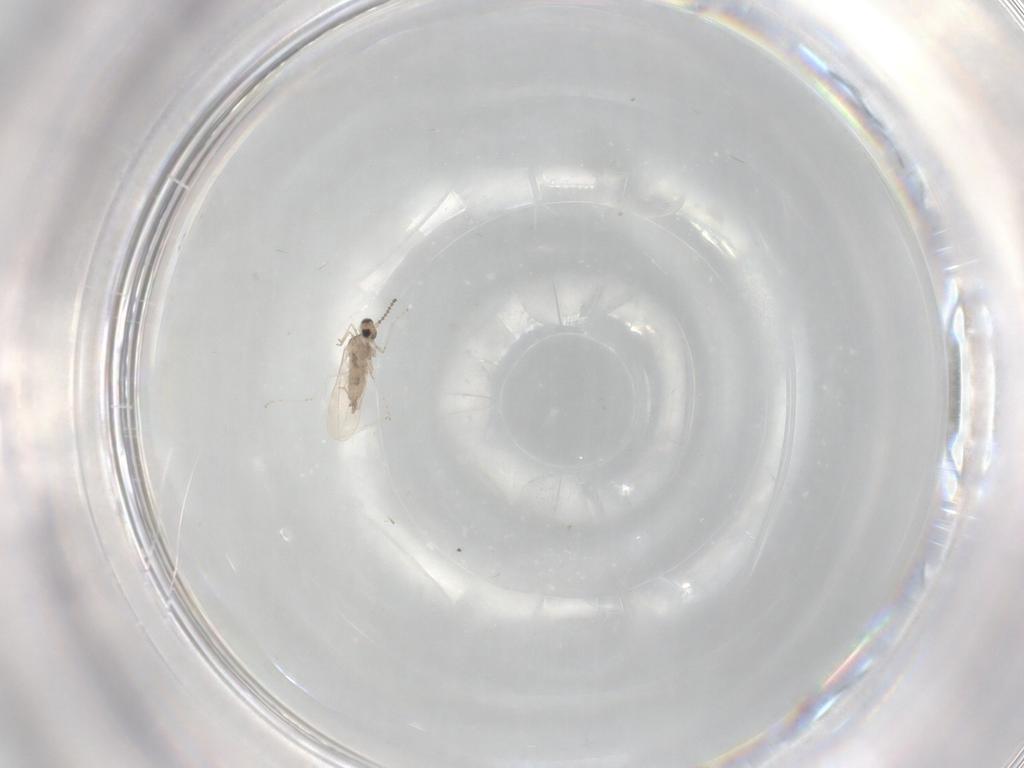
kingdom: Animalia
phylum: Arthropoda
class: Insecta
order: Diptera
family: Cecidomyiidae
